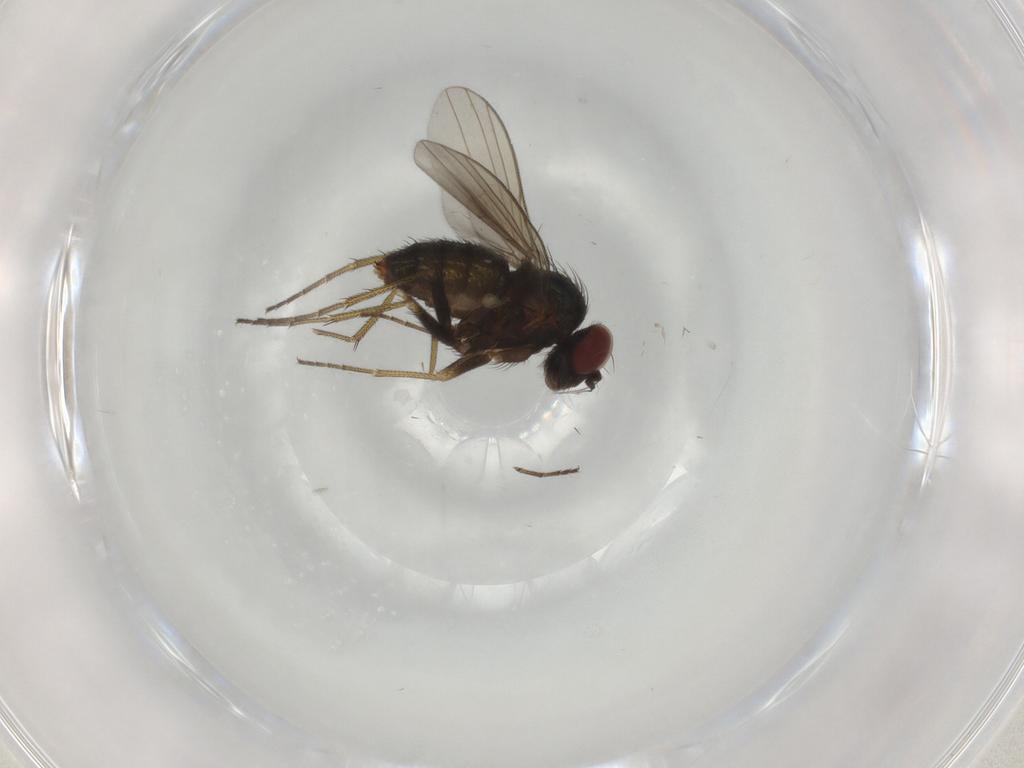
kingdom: Animalia
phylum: Arthropoda
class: Insecta
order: Diptera
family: Dolichopodidae
